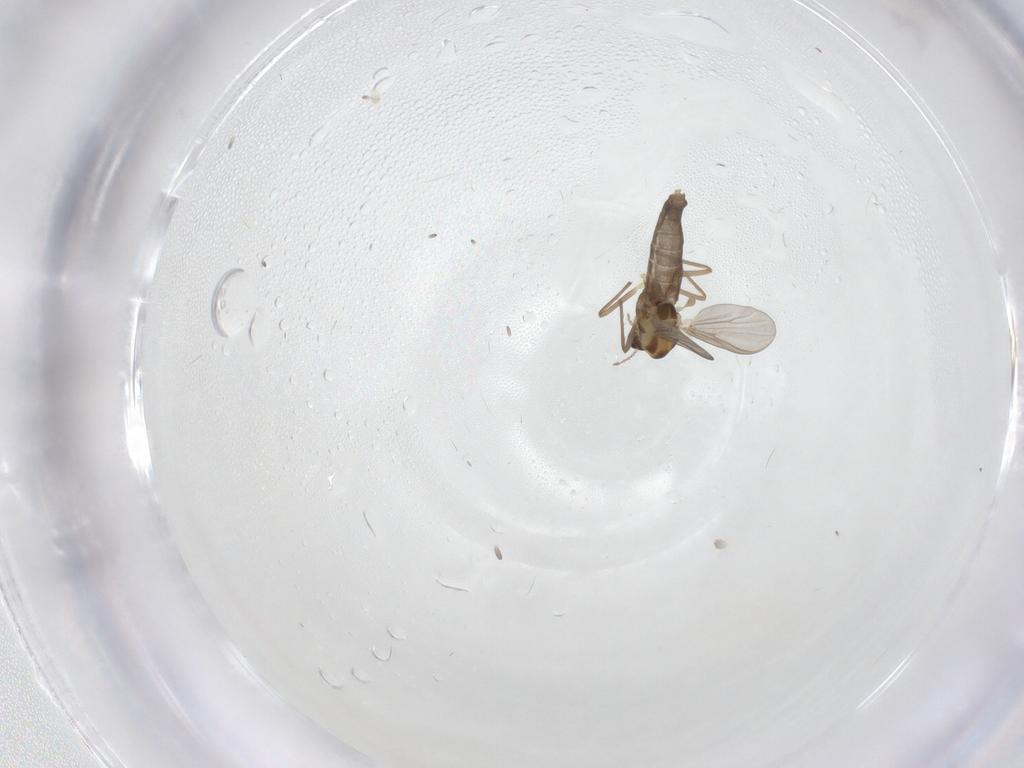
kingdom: Animalia
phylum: Arthropoda
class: Insecta
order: Diptera
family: Chironomidae
